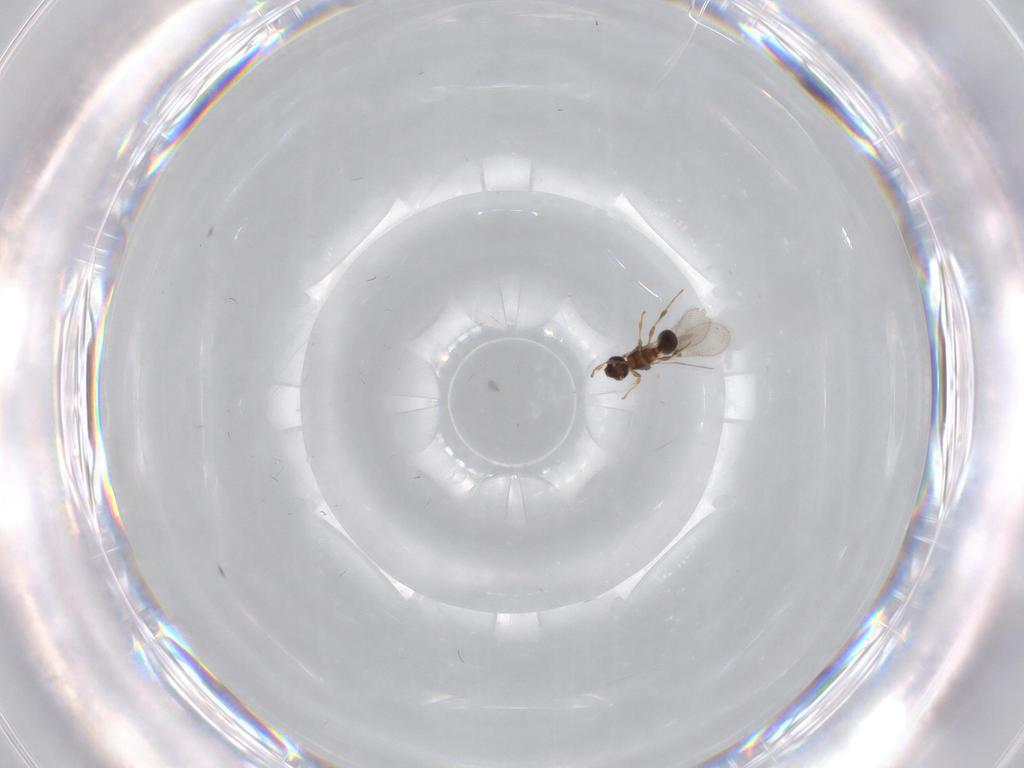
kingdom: Animalia
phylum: Arthropoda
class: Insecta
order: Hymenoptera
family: Diapriidae
